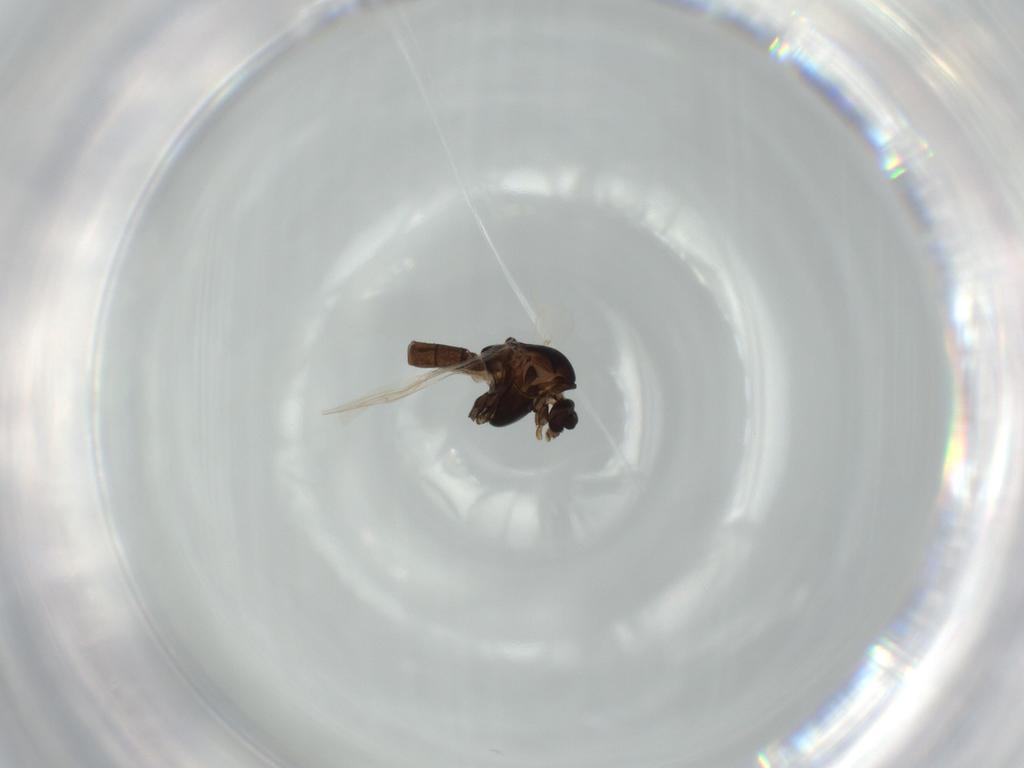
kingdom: Animalia
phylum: Arthropoda
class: Insecta
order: Diptera
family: Chironomidae
